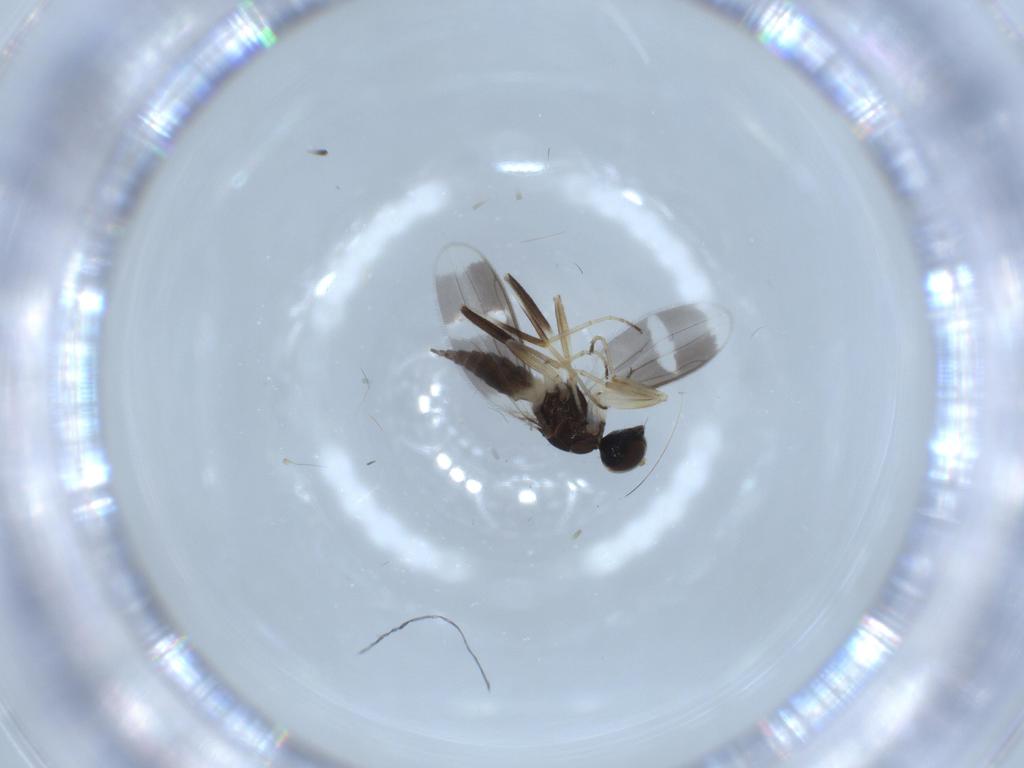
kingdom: Animalia
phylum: Arthropoda
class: Insecta
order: Diptera
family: Hybotidae
